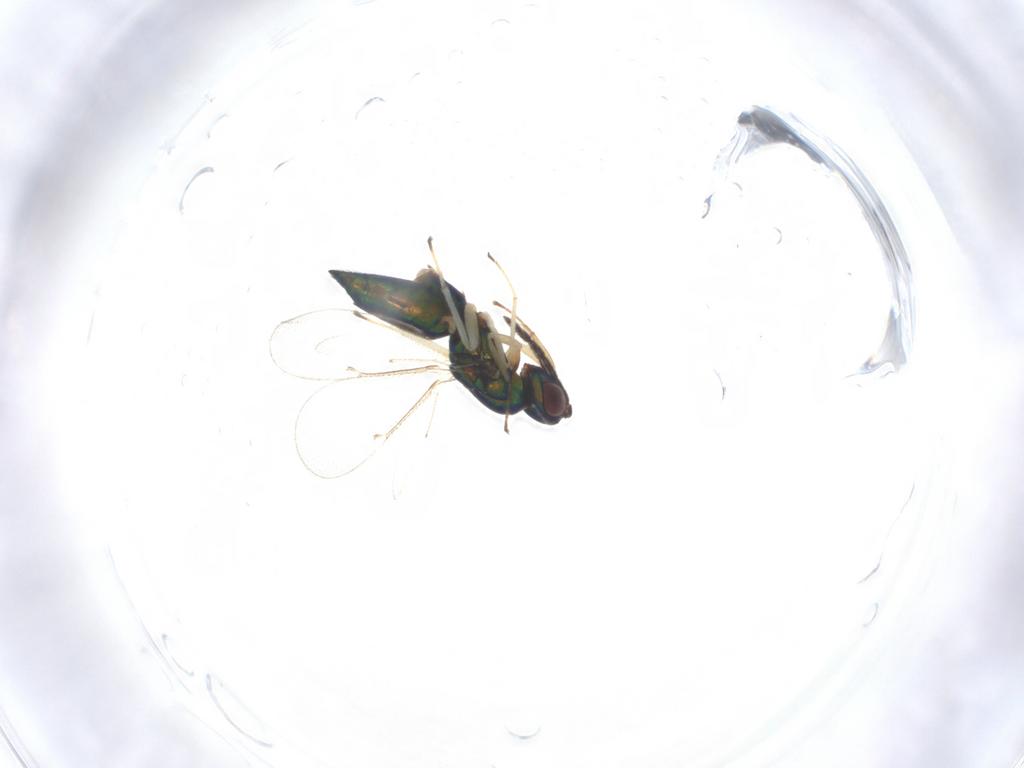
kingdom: Animalia
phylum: Arthropoda
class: Insecta
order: Hymenoptera
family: Eulophidae
